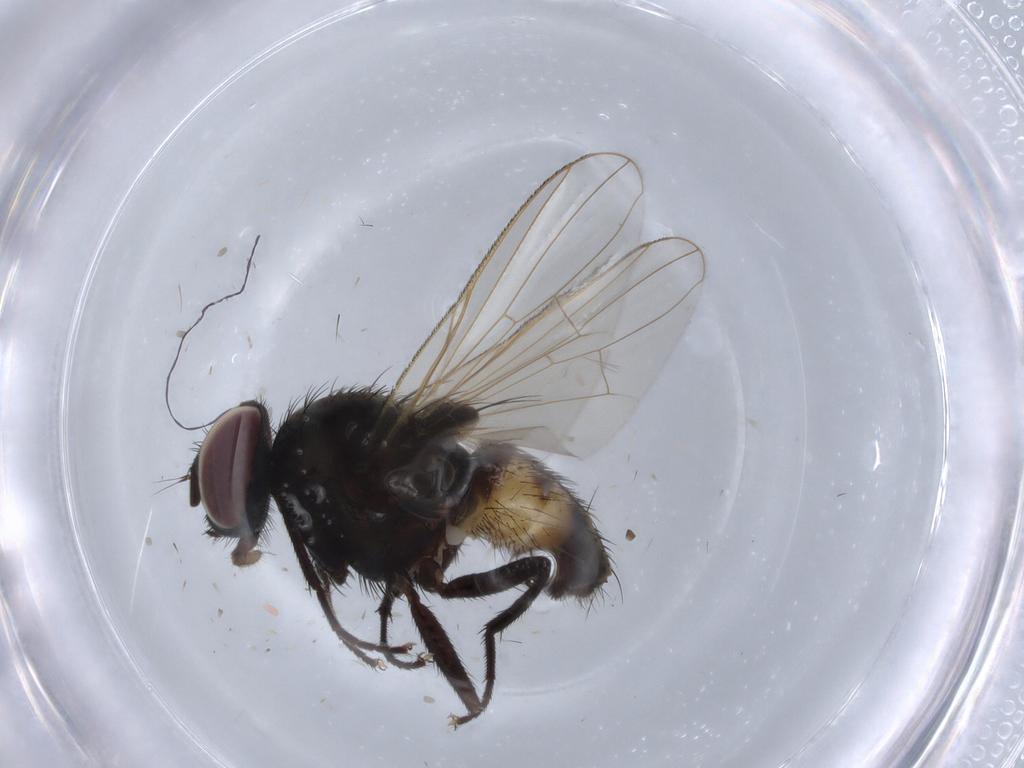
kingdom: Animalia
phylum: Arthropoda
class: Insecta
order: Diptera
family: Muscidae
